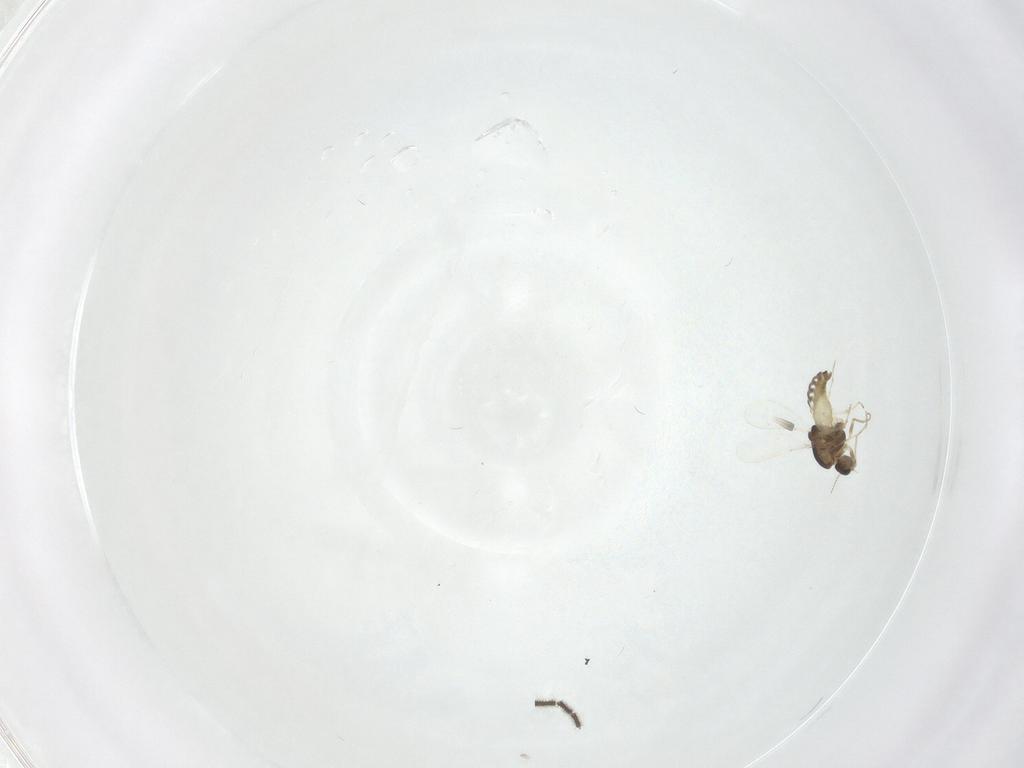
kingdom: Animalia
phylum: Arthropoda
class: Insecta
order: Diptera
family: Chironomidae
